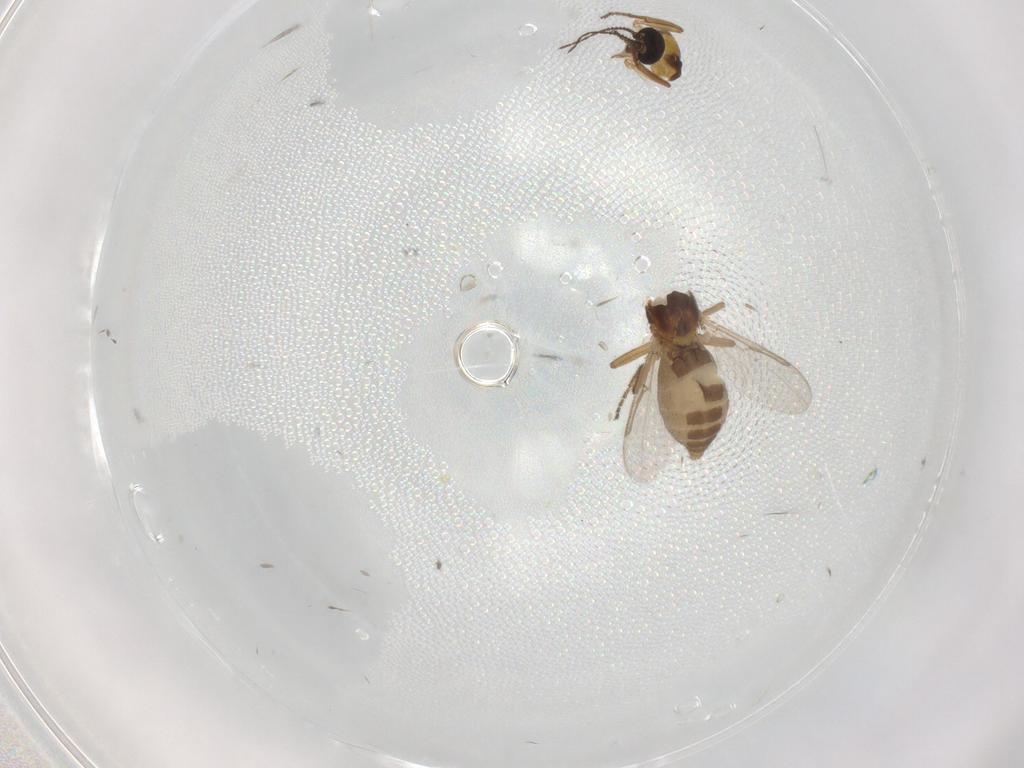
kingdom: Animalia
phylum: Arthropoda
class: Insecta
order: Diptera
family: Ceratopogonidae
